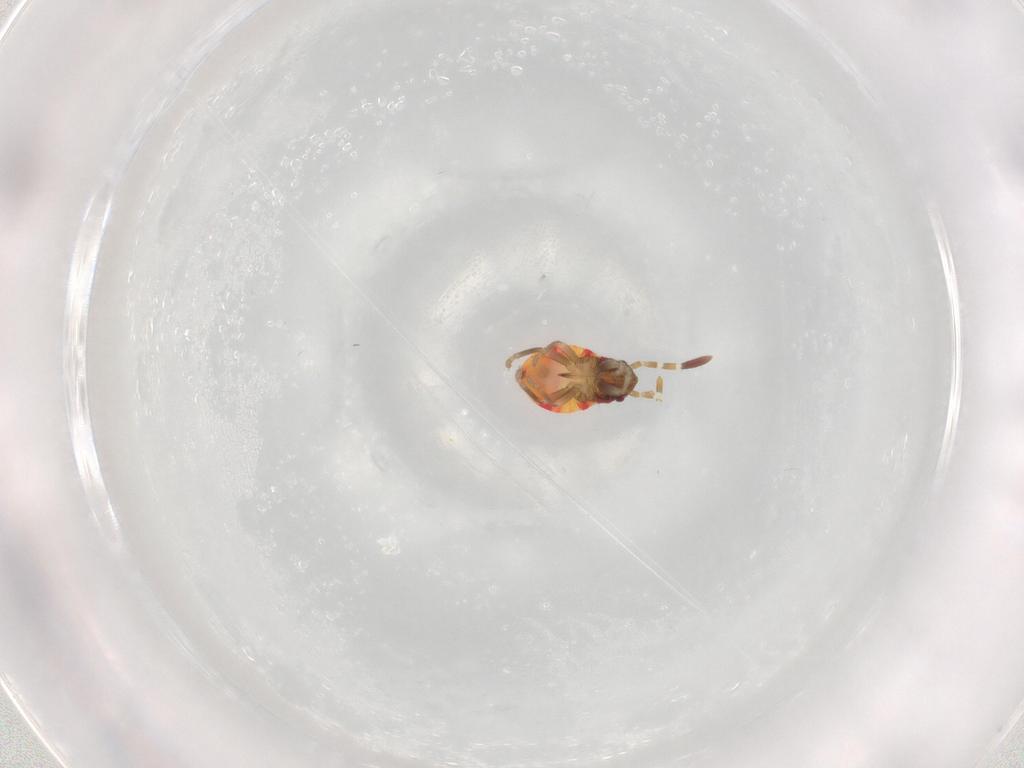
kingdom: Animalia
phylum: Arthropoda
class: Insecta
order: Hemiptera
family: Rhyparochromidae
